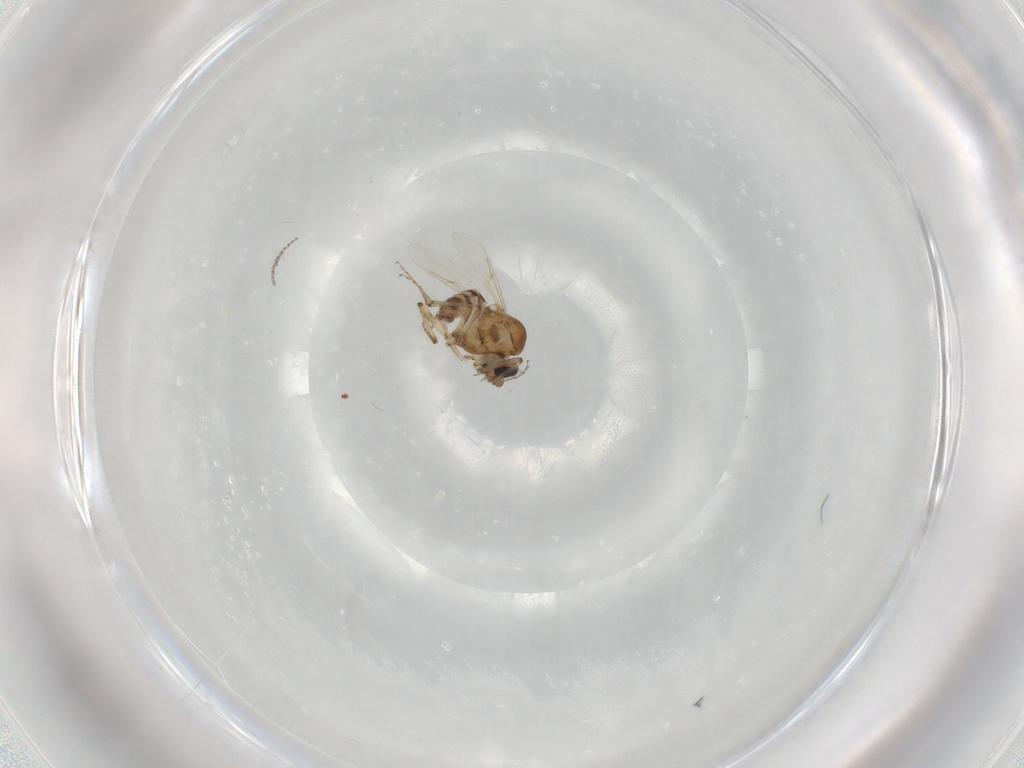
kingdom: Animalia
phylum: Arthropoda
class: Insecta
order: Diptera
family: Ceratopogonidae
